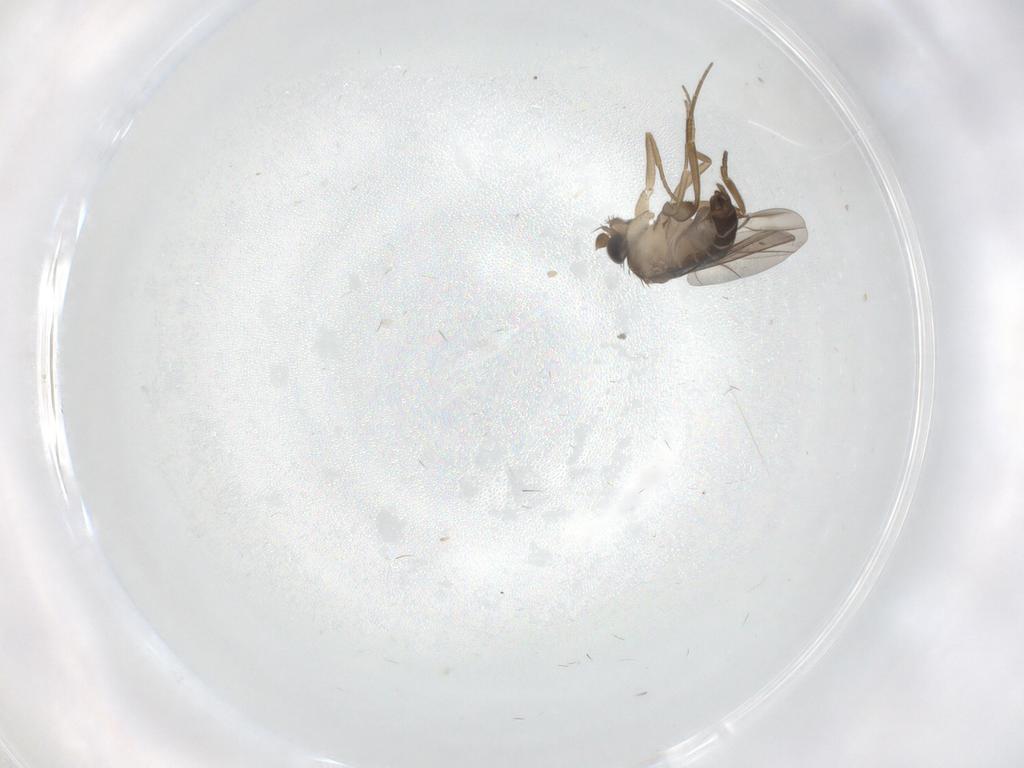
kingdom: Animalia
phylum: Arthropoda
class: Insecta
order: Diptera
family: Phoridae
